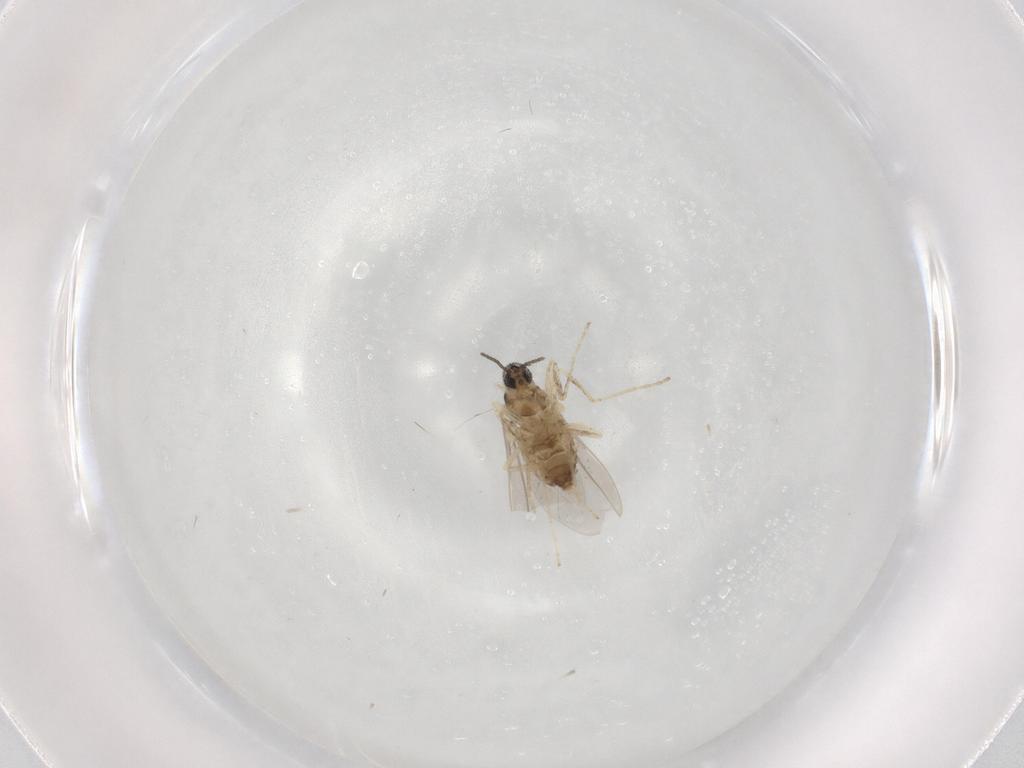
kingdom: Animalia
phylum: Arthropoda
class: Insecta
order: Diptera
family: Cecidomyiidae
